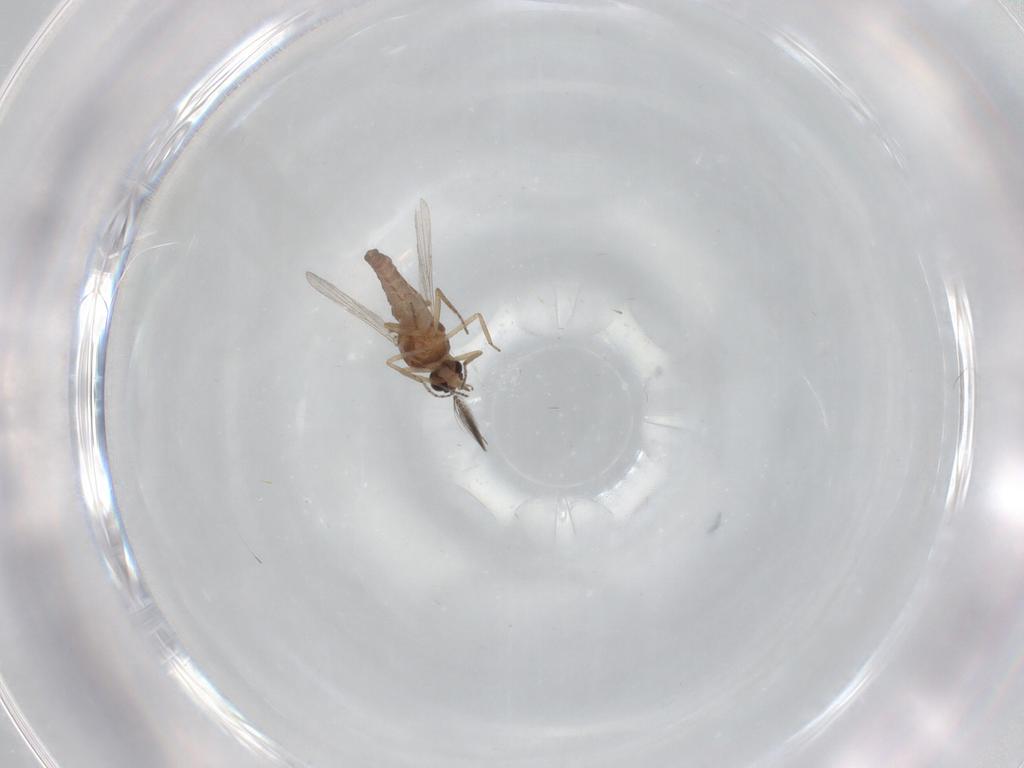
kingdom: Animalia
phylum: Arthropoda
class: Insecta
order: Diptera
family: Ceratopogonidae
